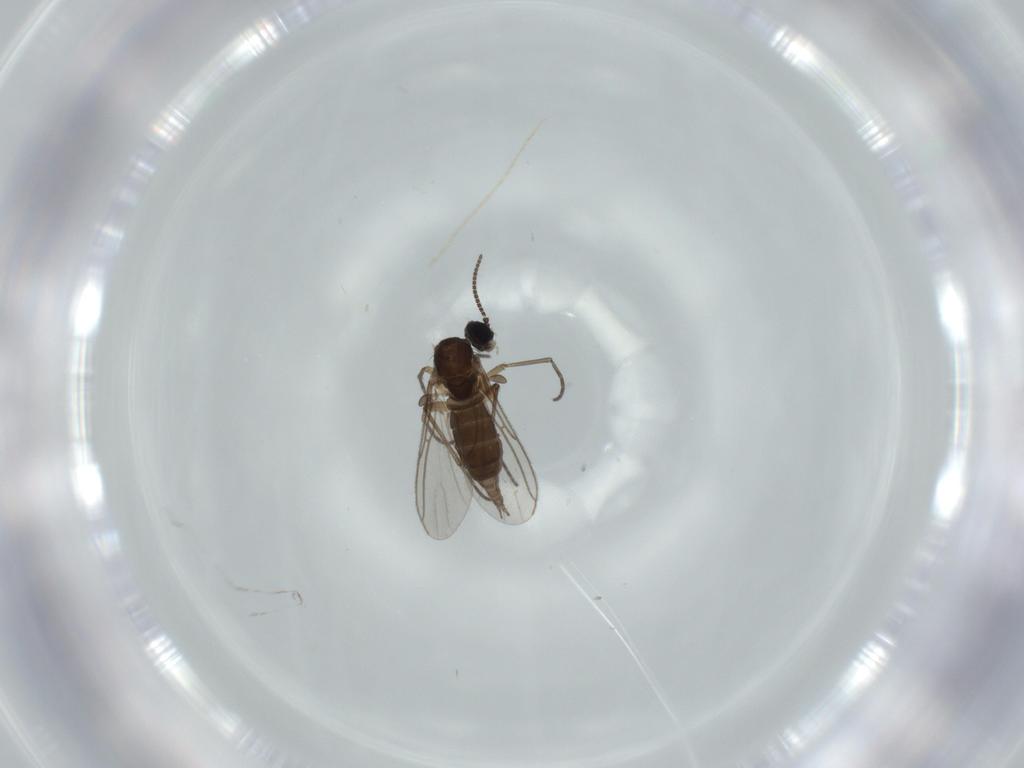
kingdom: Animalia
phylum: Arthropoda
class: Insecta
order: Diptera
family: Sciaridae
